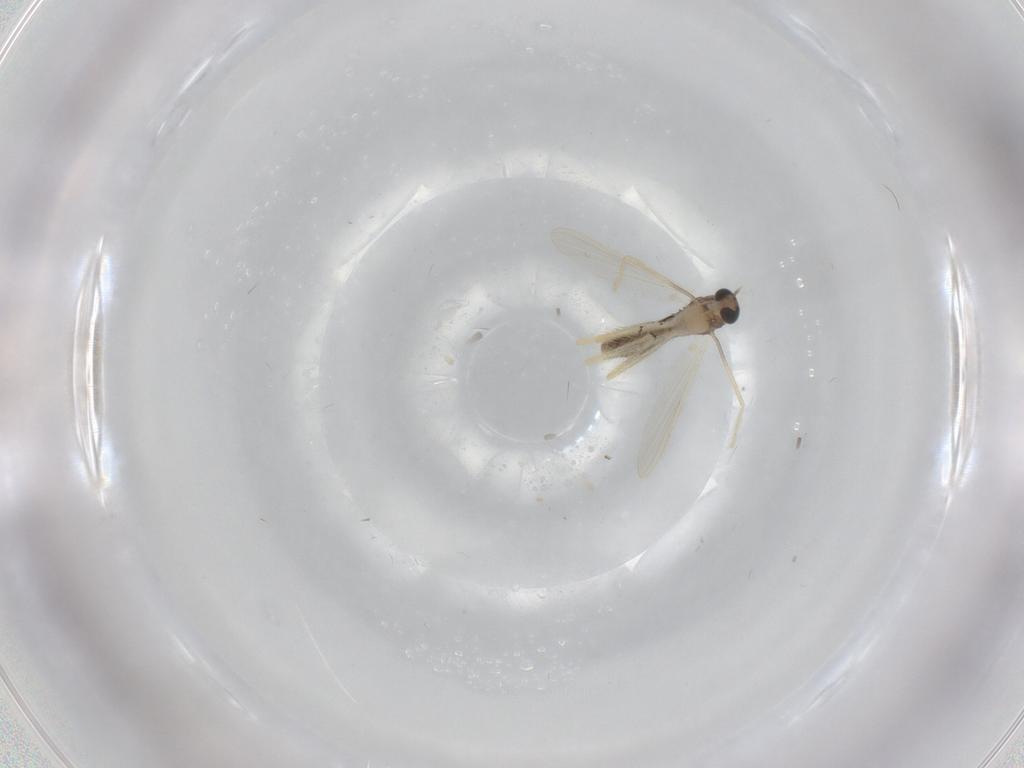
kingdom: Animalia
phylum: Arthropoda
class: Insecta
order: Diptera
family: Chironomidae
